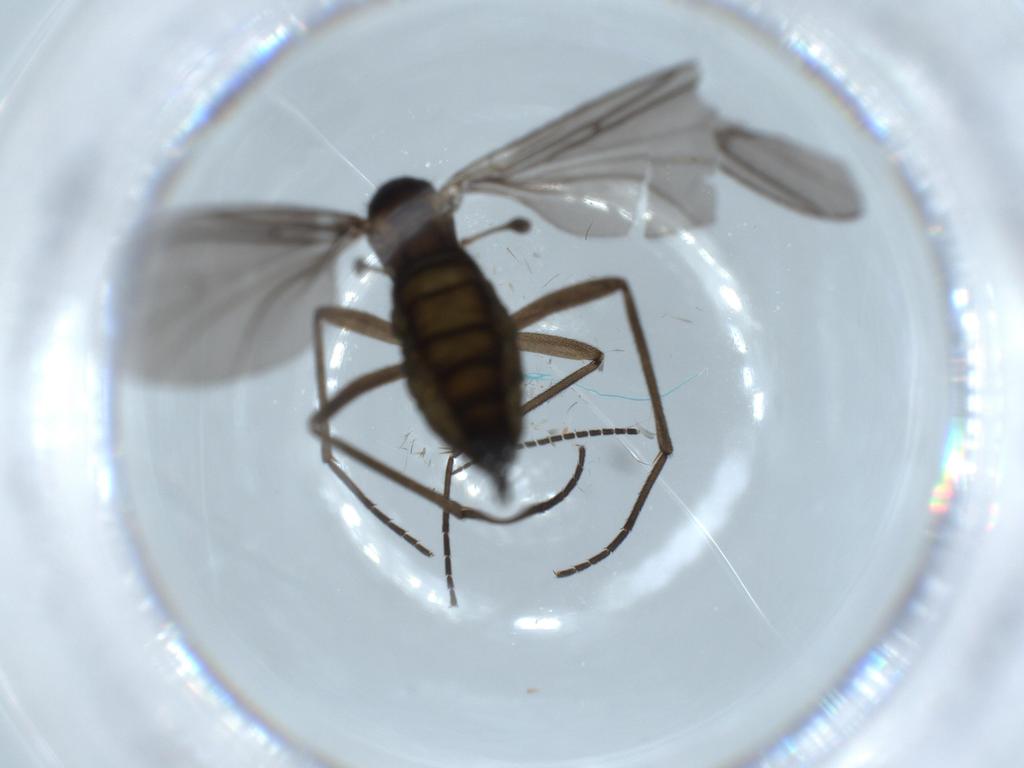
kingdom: Animalia
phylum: Arthropoda
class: Insecta
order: Diptera
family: Sciaridae
